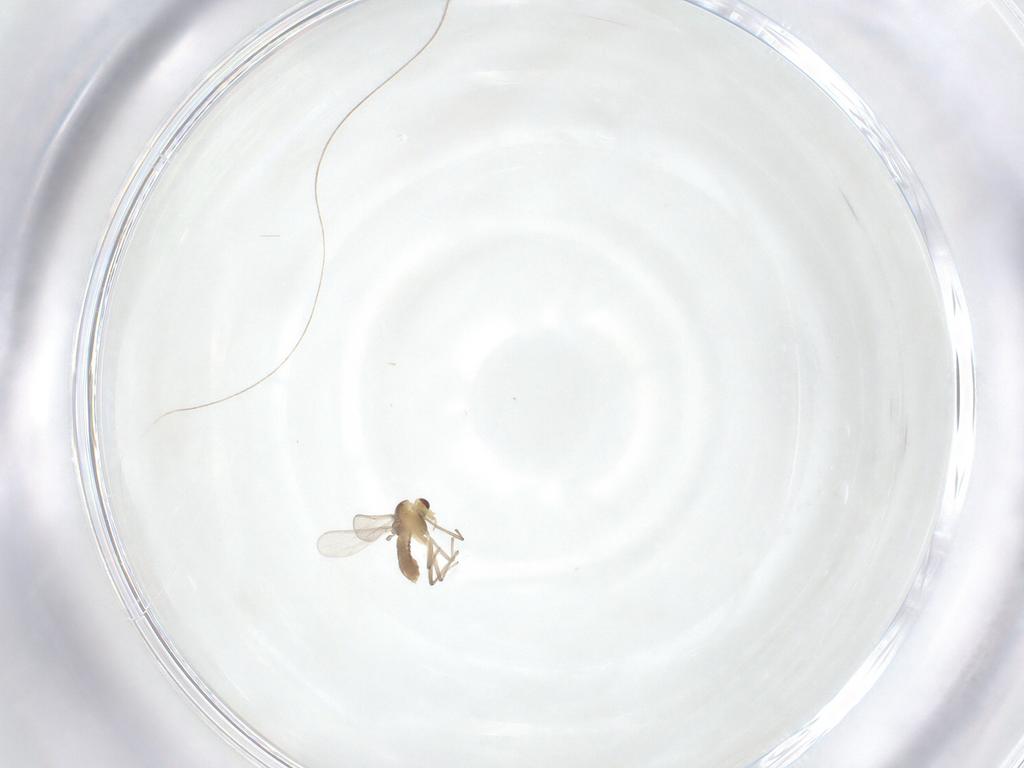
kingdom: Animalia
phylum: Arthropoda
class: Insecta
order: Diptera
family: Chironomidae
